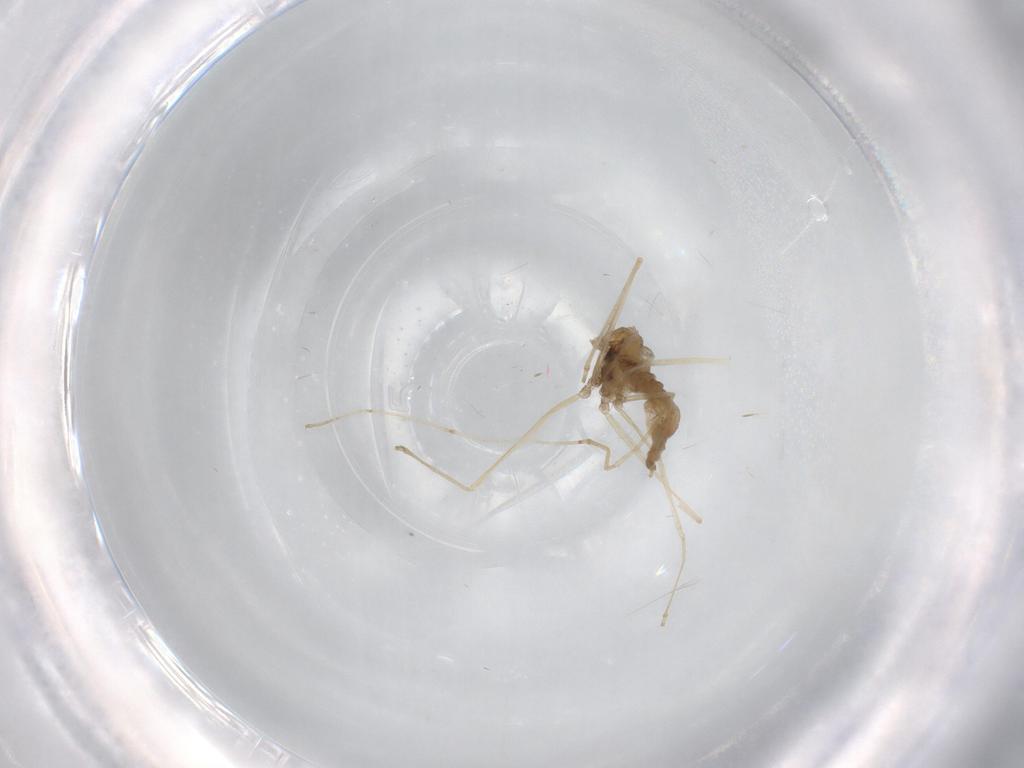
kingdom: Animalia
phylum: Arthropoda
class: Insecta
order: Diptera
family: Cecidomyiidae
